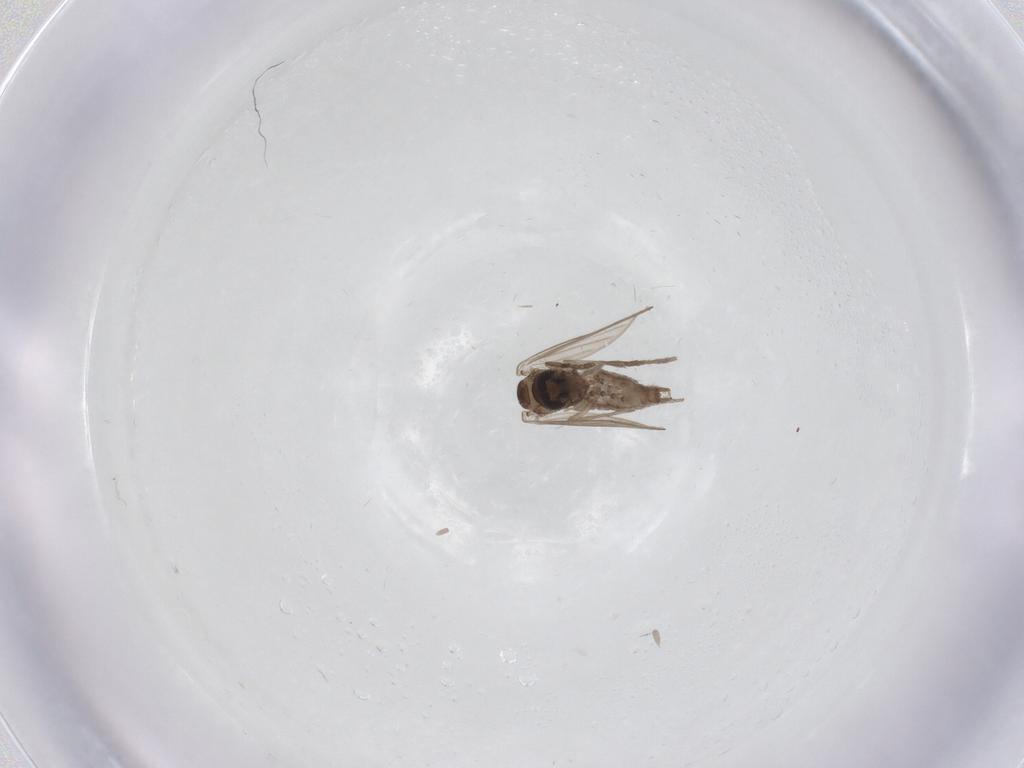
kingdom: Animalia
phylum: Arthropoda
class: Insecta
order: Diptera
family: Psychodidae
